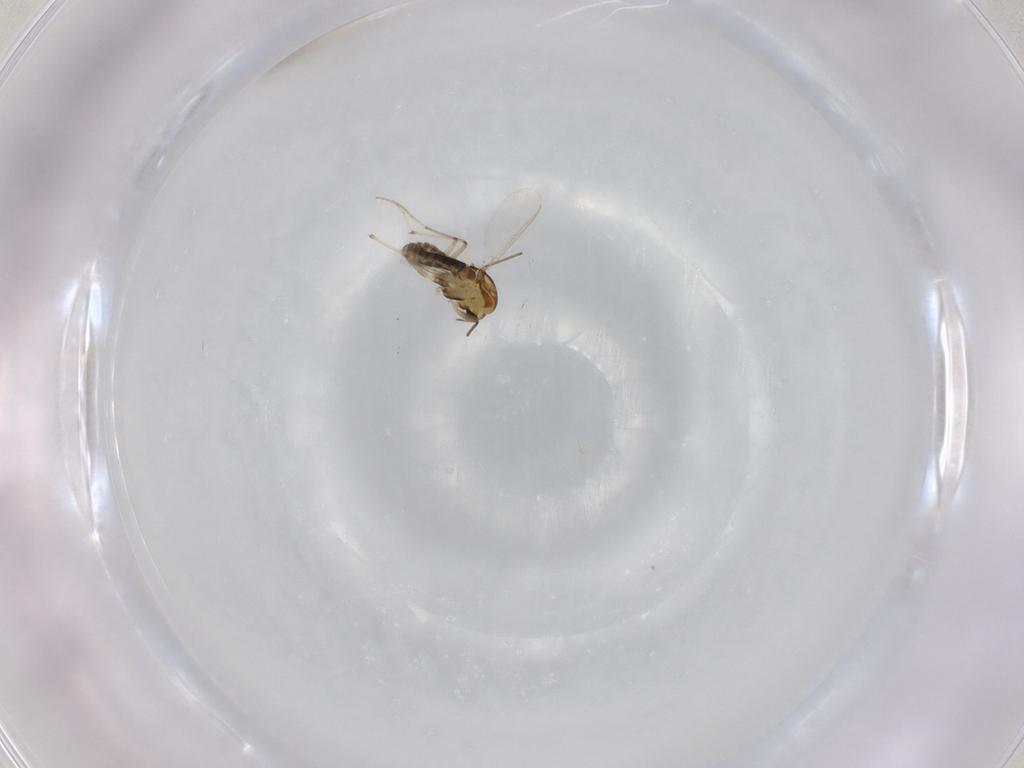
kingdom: Animalia
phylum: Arthropoda
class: Insecta
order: Diptera
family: Chironomidae
